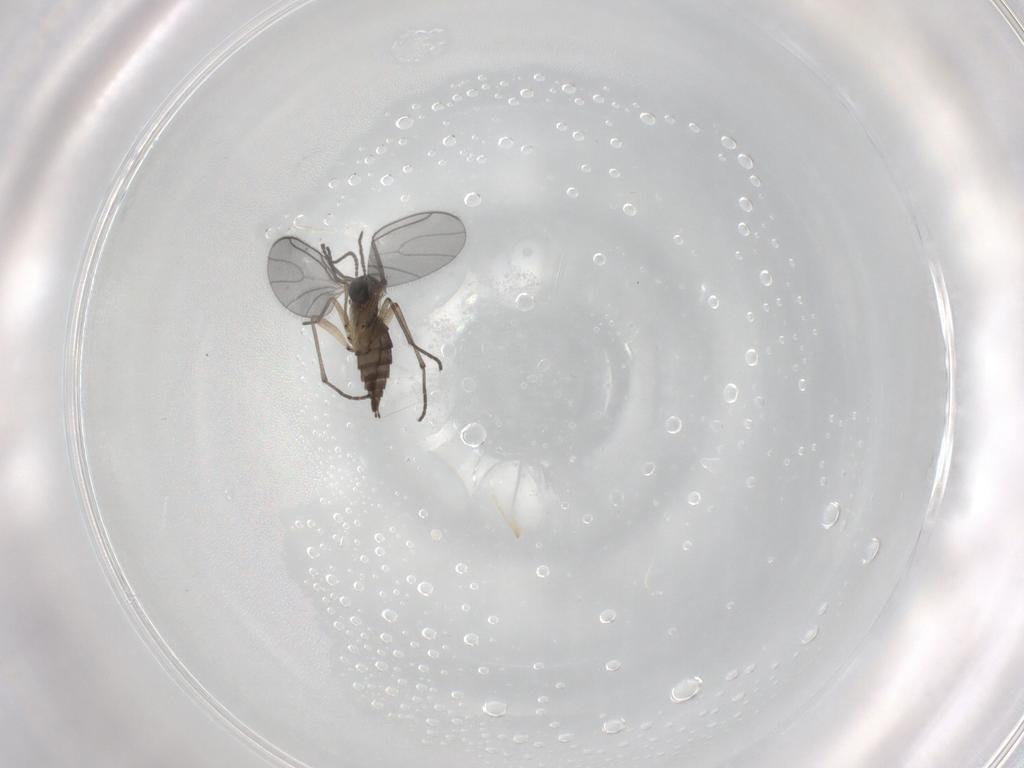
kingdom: Animalia
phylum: Arthropoda
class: Insecta
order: Diptera
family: Sciaridae
